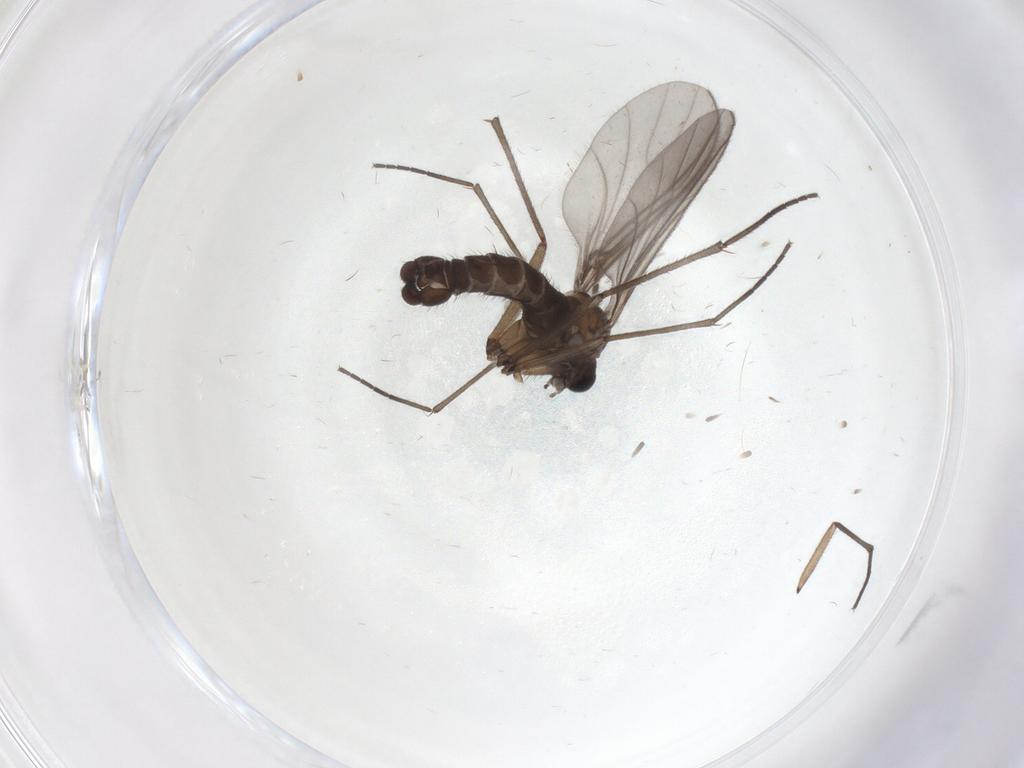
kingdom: Animalia
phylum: Arthropoda
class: Insecta
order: Diptera
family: Sciaridae
